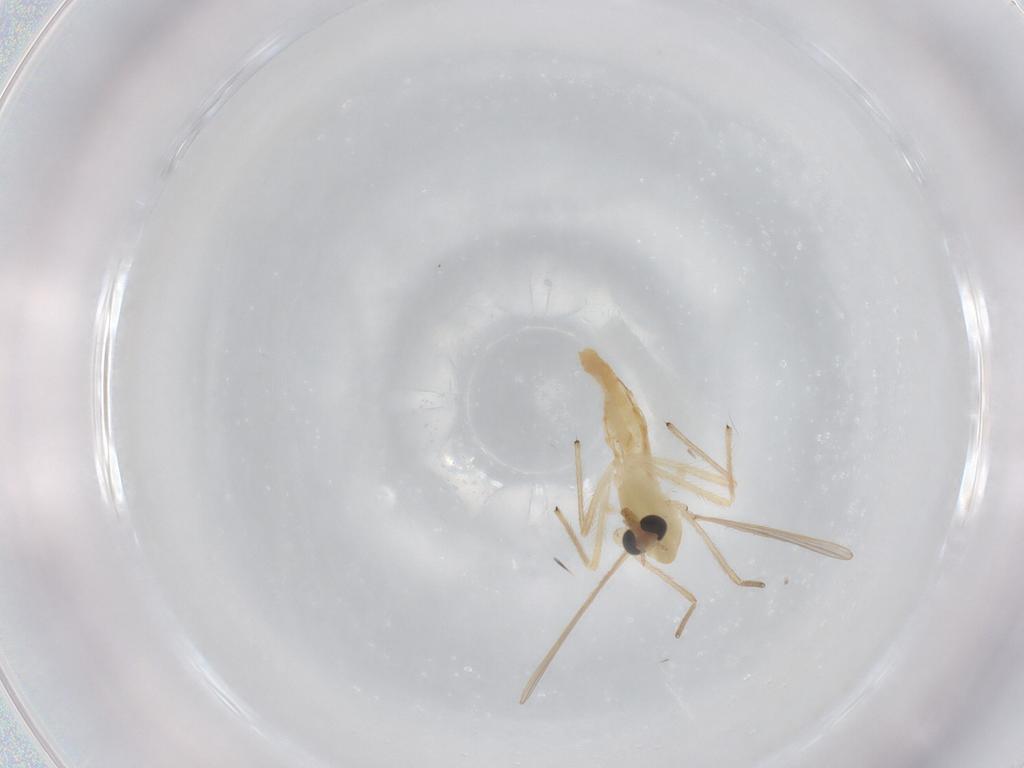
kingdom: Animalia
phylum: Arthropoda
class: Insecta
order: Diptera
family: Chironomidae
